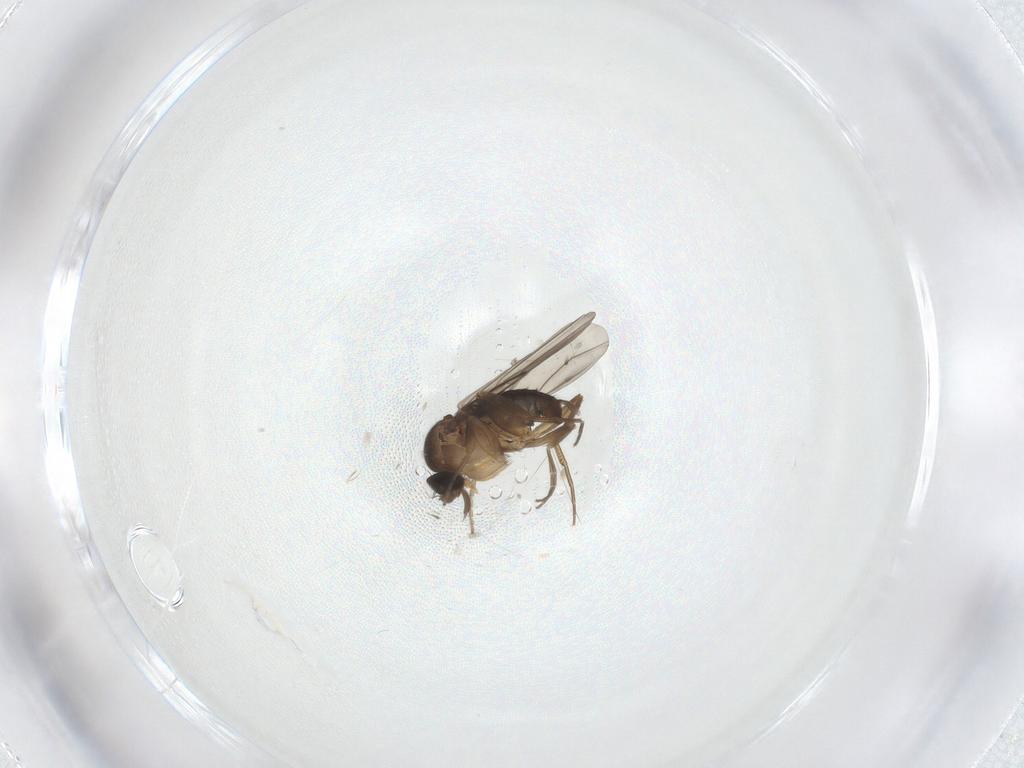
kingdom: Animalia
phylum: Arthropoda
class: Insecta
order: Diptera
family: Phoridae
